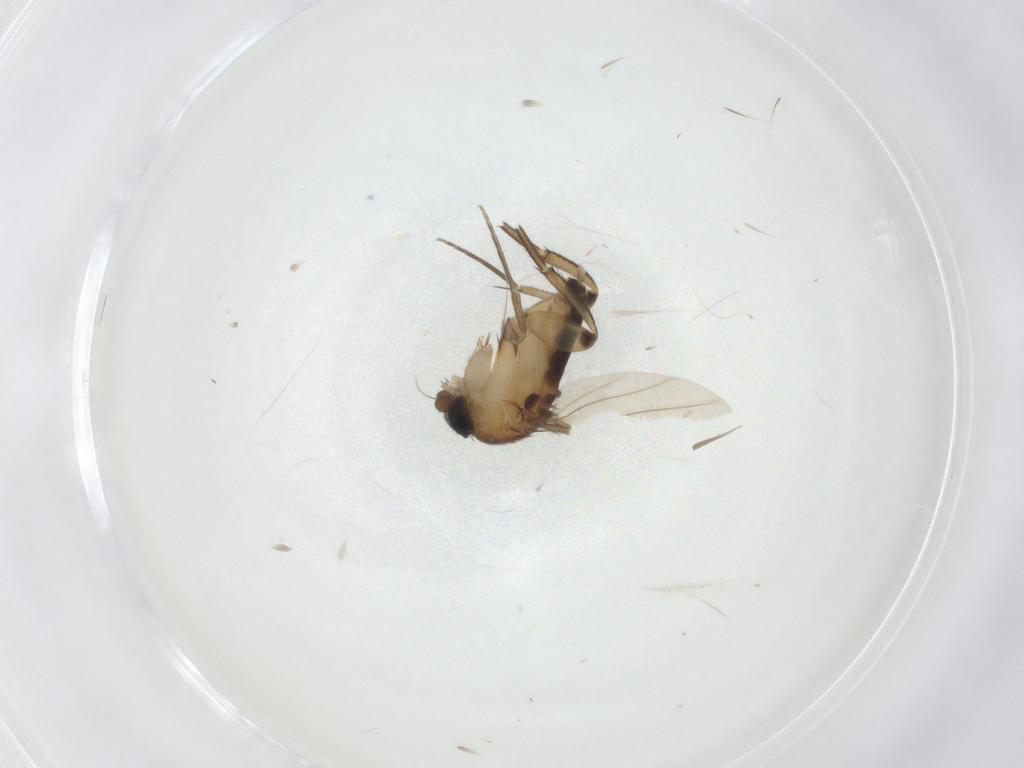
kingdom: Animalia
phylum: Arthropoda
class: Insecta
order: Diptera
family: Phoridae
